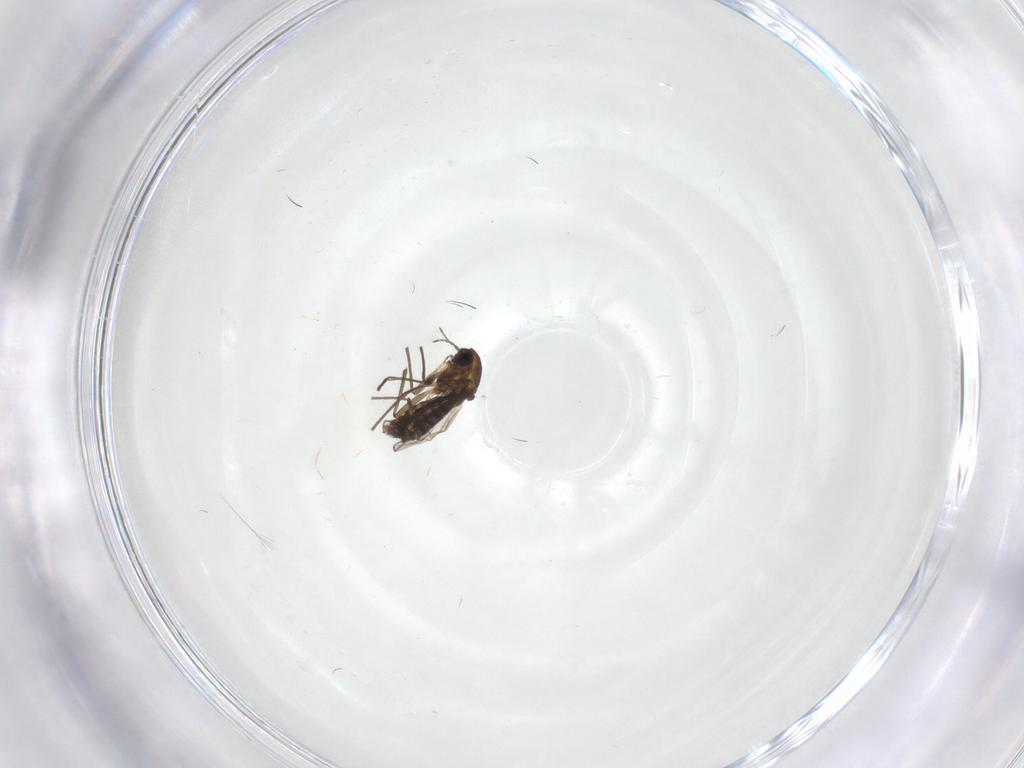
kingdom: Animalia
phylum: Arthropoda
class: Insecta
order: Diptera
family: Chironomidae
